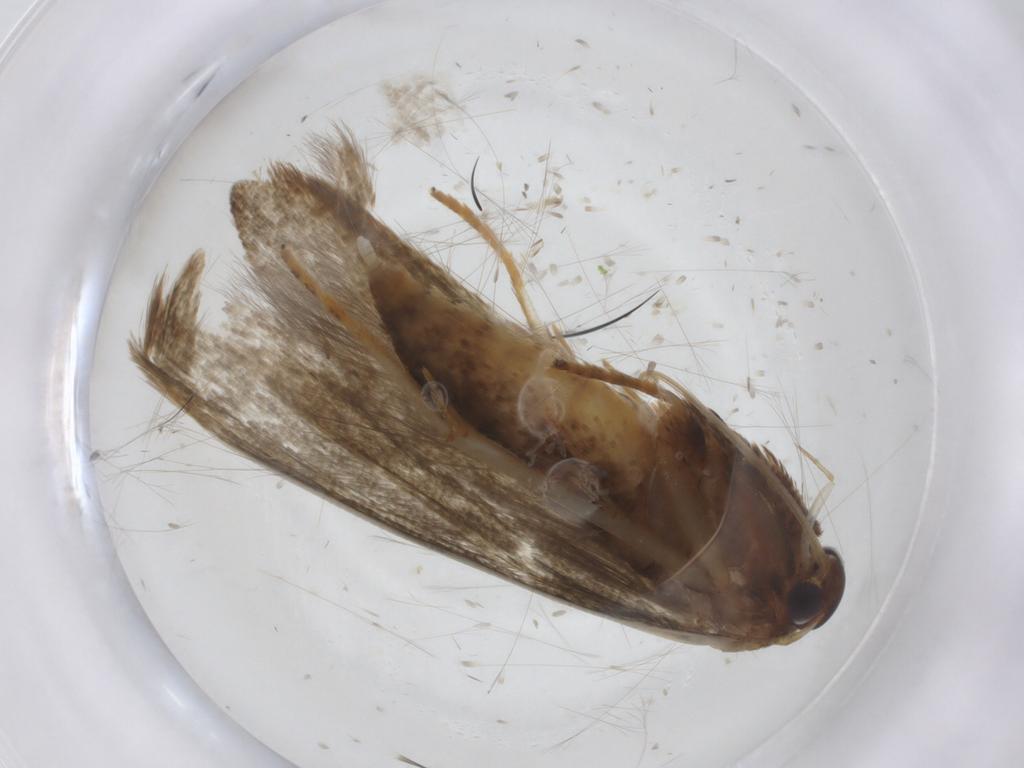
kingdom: Animalia
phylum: Arthropoda
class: Insecta
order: Lepidoptera
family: Blastobasidae
